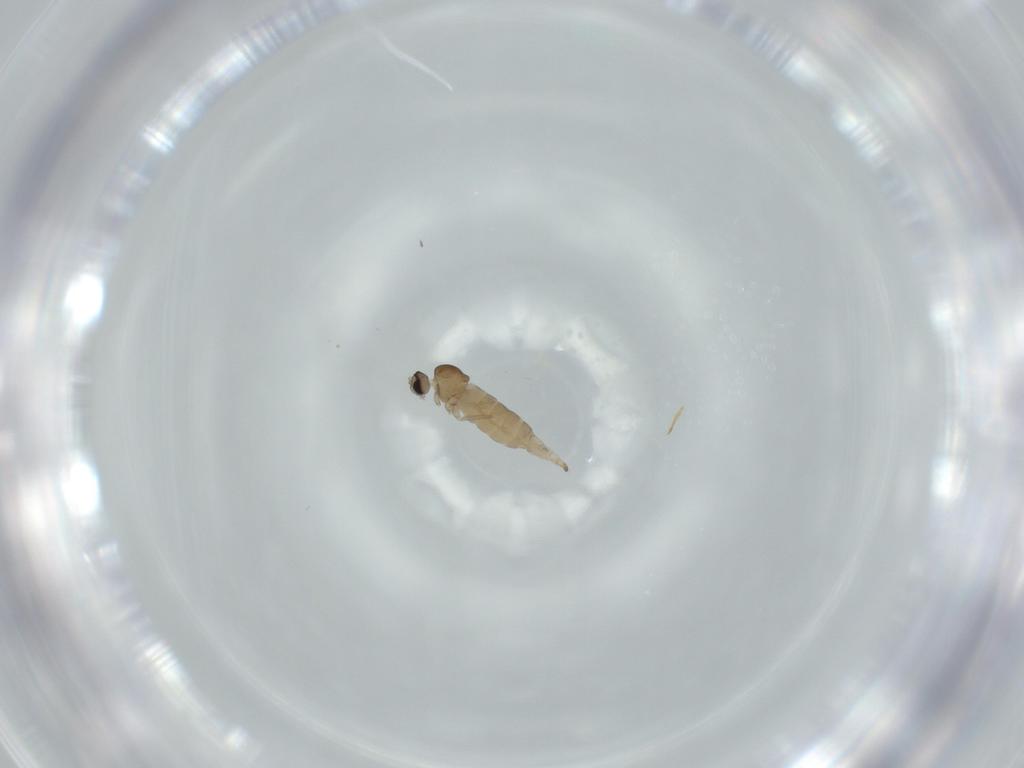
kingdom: Animalia
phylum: Arthropoda
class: Insecta
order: Diptera
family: Cecidomyiidae
